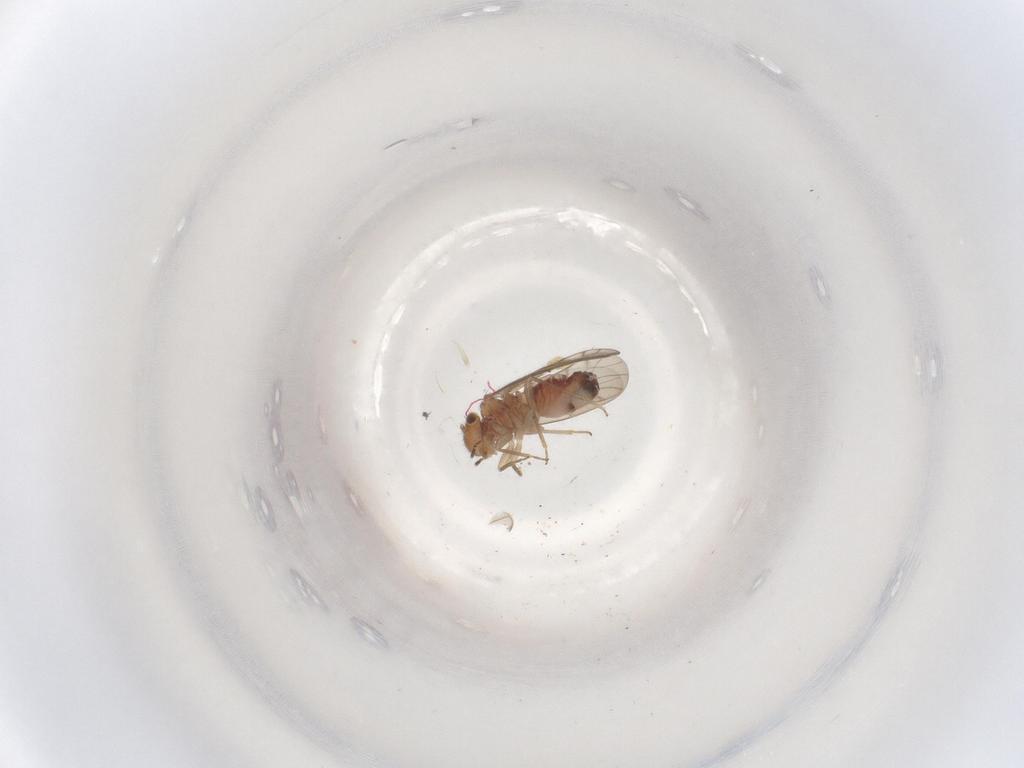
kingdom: Animalia
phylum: Arthropoda
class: Insecta
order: Psocodea
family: Ectopsocidae
